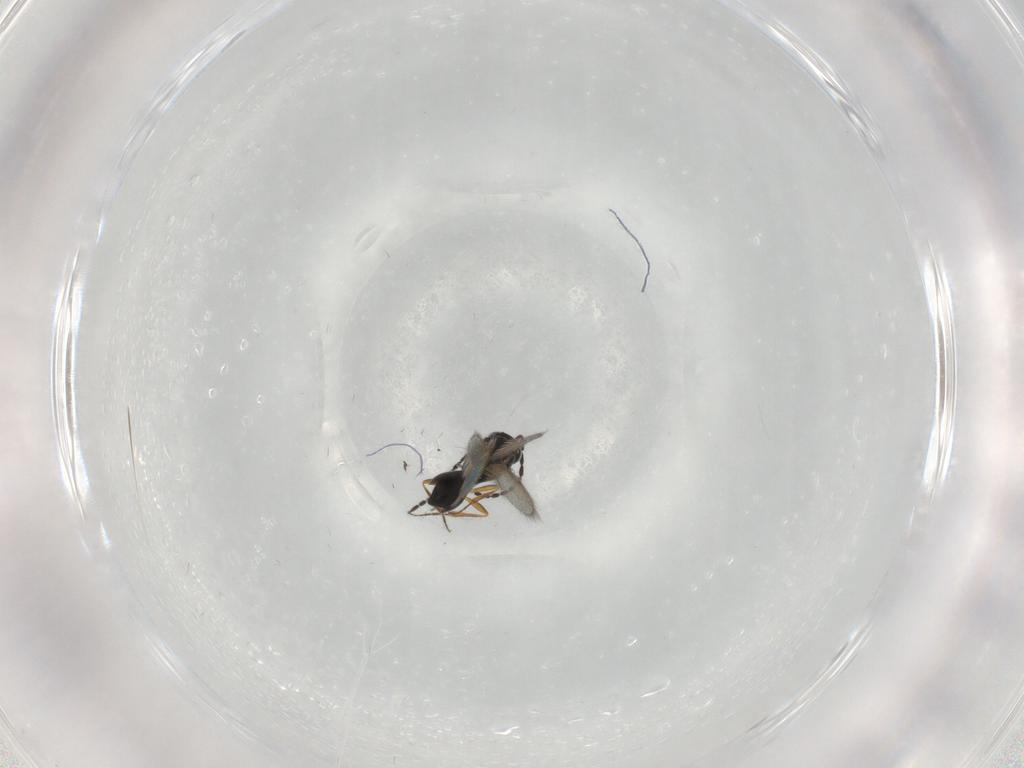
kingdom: Animalia
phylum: Arthropoda
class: Insecta
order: Hymenoptera
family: Scelionidae
